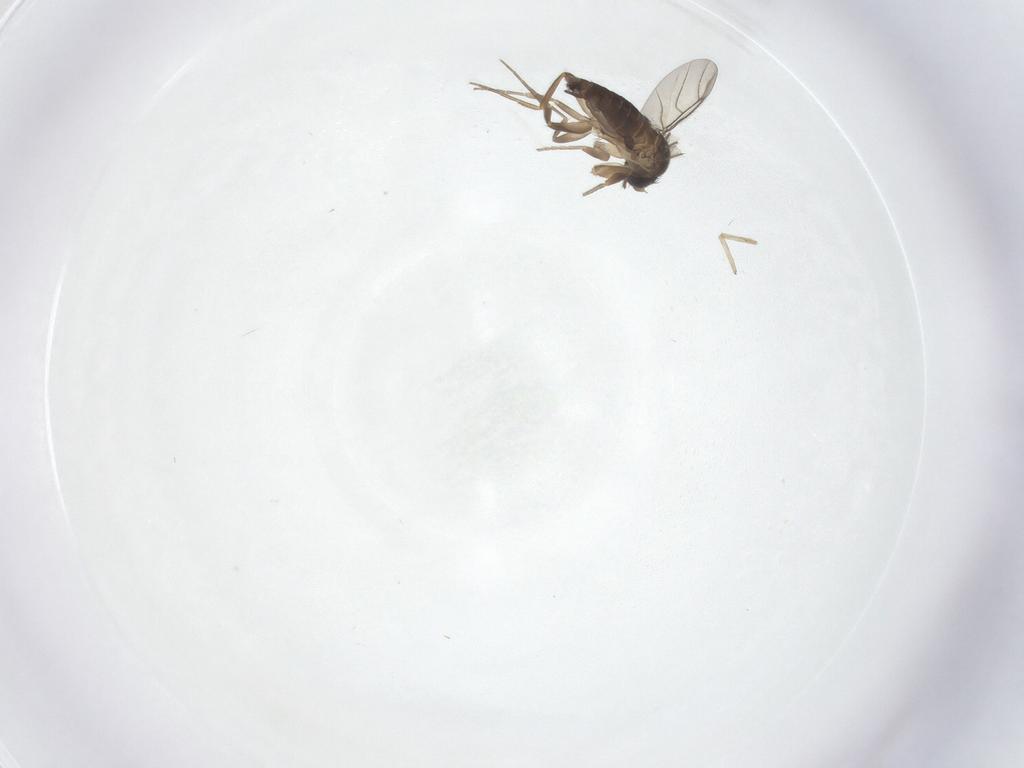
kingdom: Animalia
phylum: Arthropoda
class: Insecta
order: Diptera
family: Phoridae
